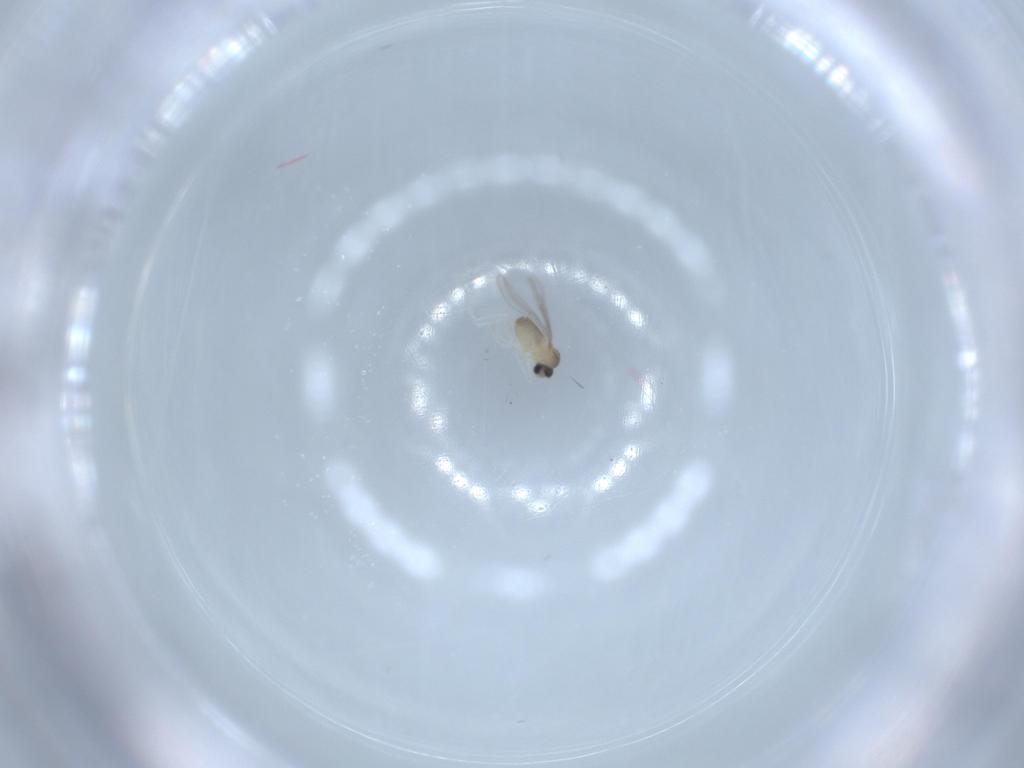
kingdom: Animalia
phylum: Arthropoda
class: Insecta
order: Diptera
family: Cecidomyiidae
